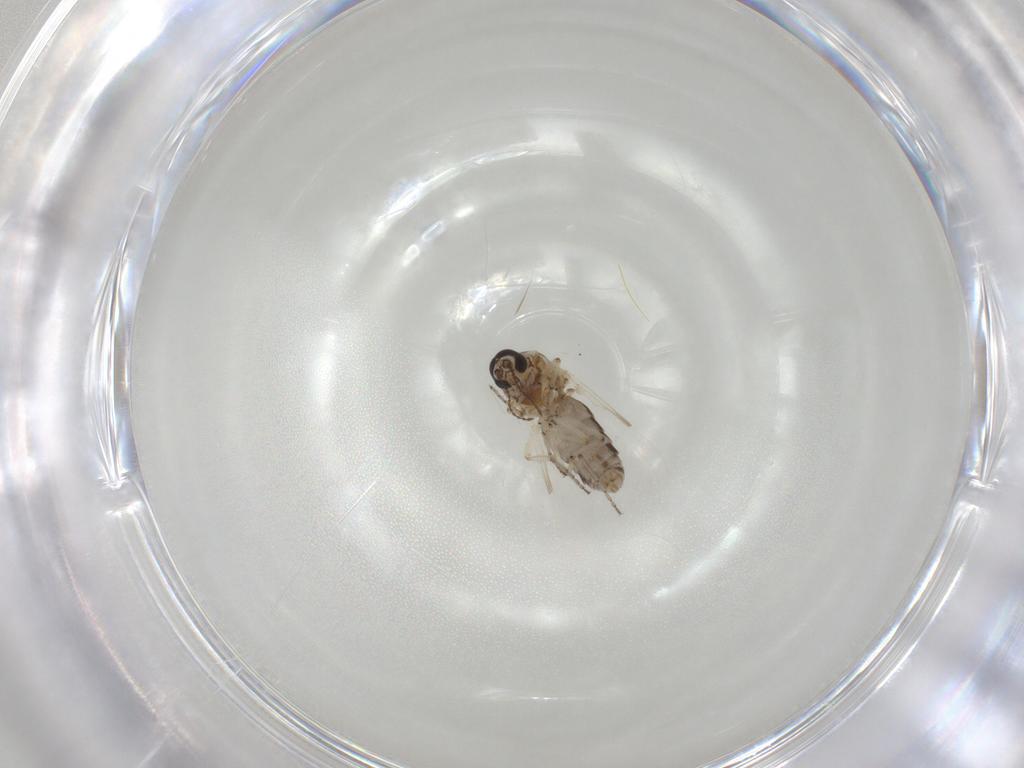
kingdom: Animalia
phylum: Arthropoda
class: Insecta
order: Diptera
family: Ceratopogonidae
